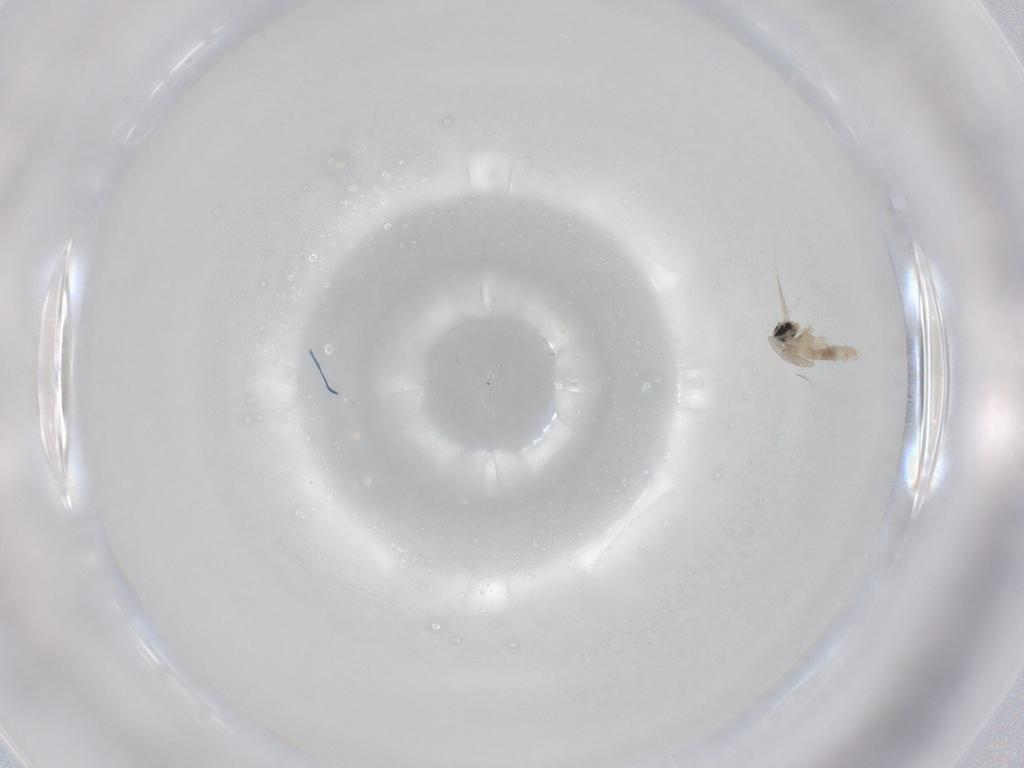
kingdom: Animalia
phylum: Arthropoda
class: Insecta
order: Diptera
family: Cecidomyiidae
